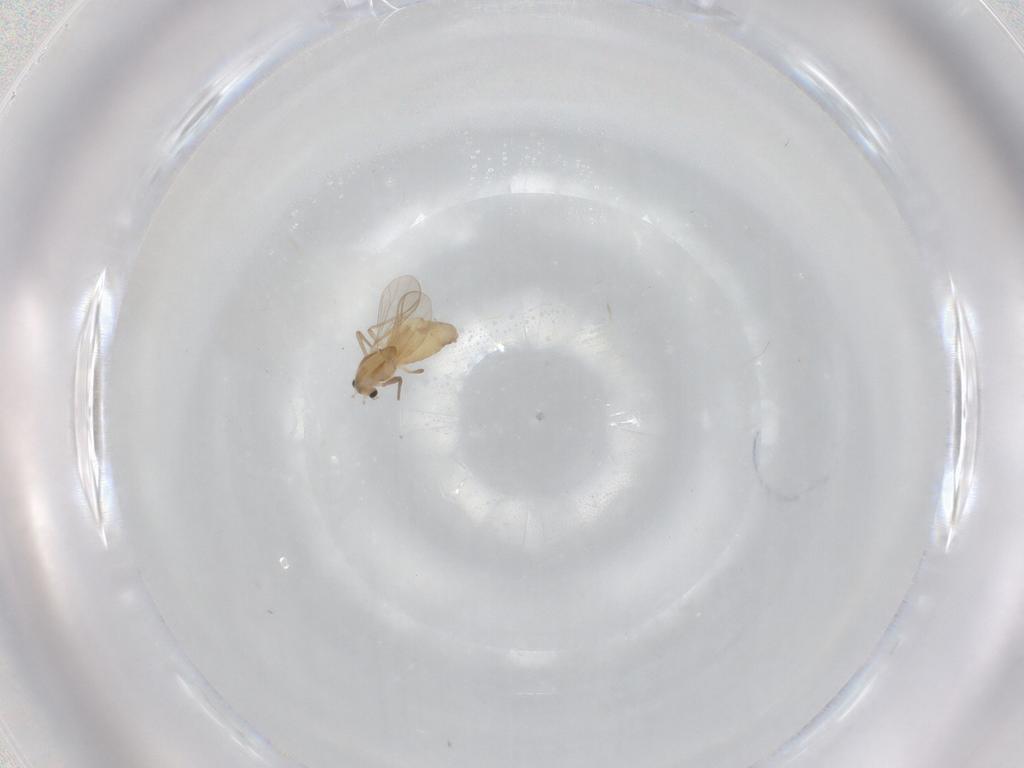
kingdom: Animalia
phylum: Arthropoda
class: Insecta
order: Diptera
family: Chironomidae
